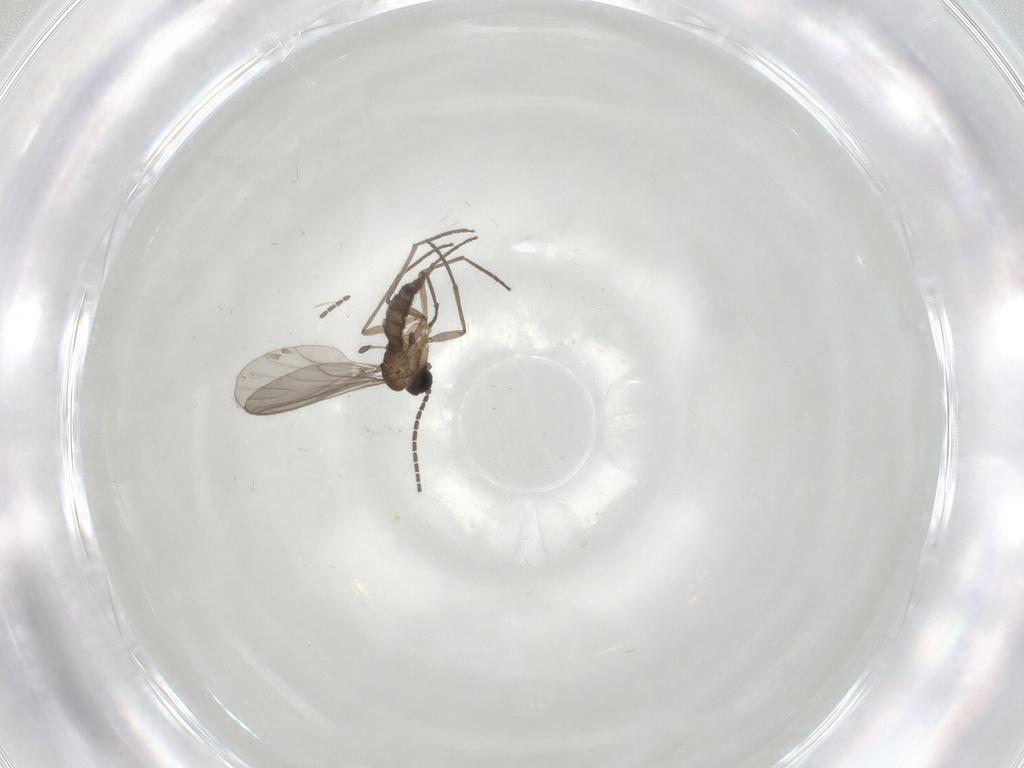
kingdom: Animalia
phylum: Arthropoda
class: Insecta
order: Diptera
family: Sciaridae
